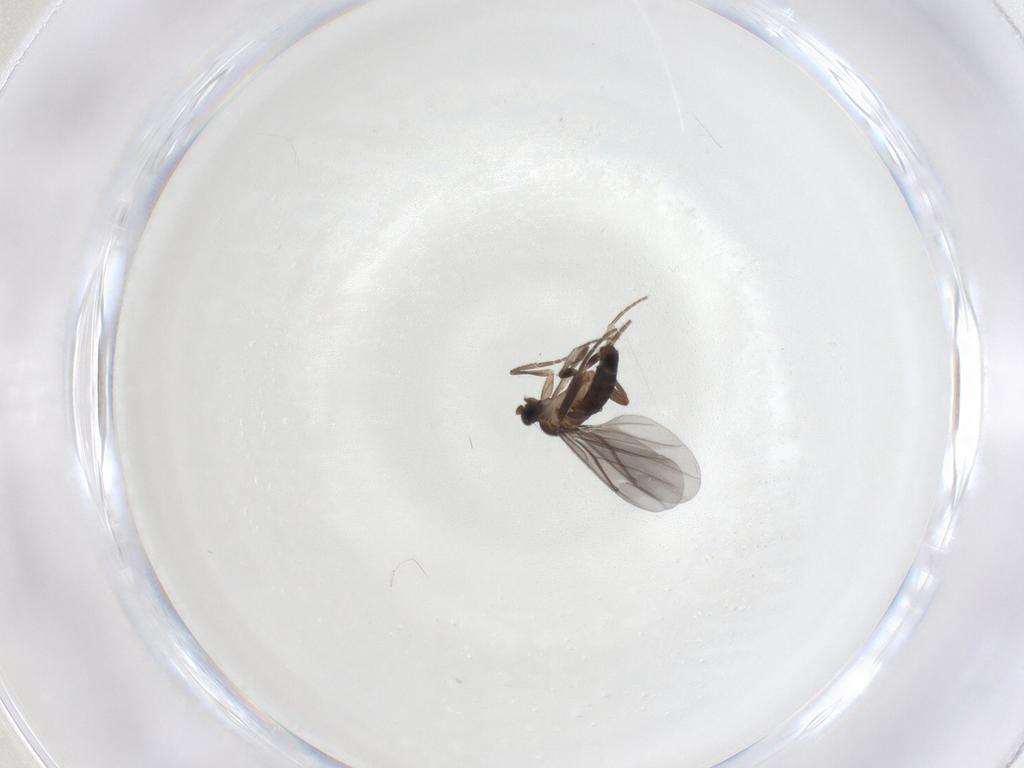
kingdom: Animalia
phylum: Arthropoda
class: Insecta
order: Diptera
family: Phoridae
